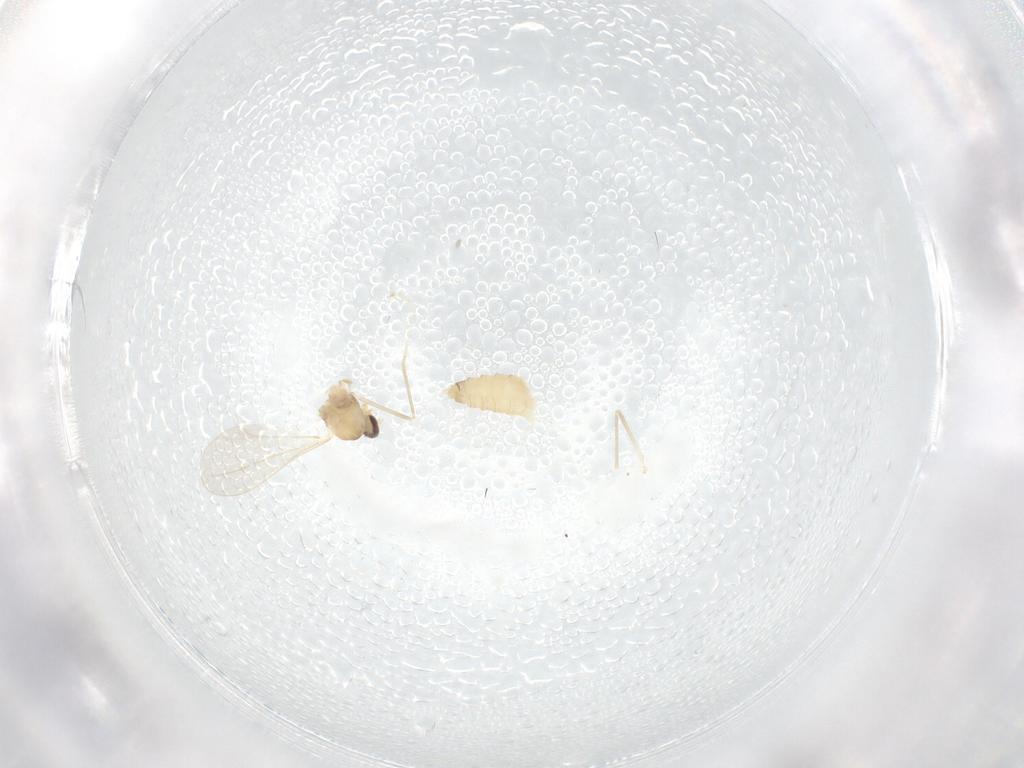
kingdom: Animalia
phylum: Arthropoda
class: Insecta
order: Diptera
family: Cecidomyiidae
